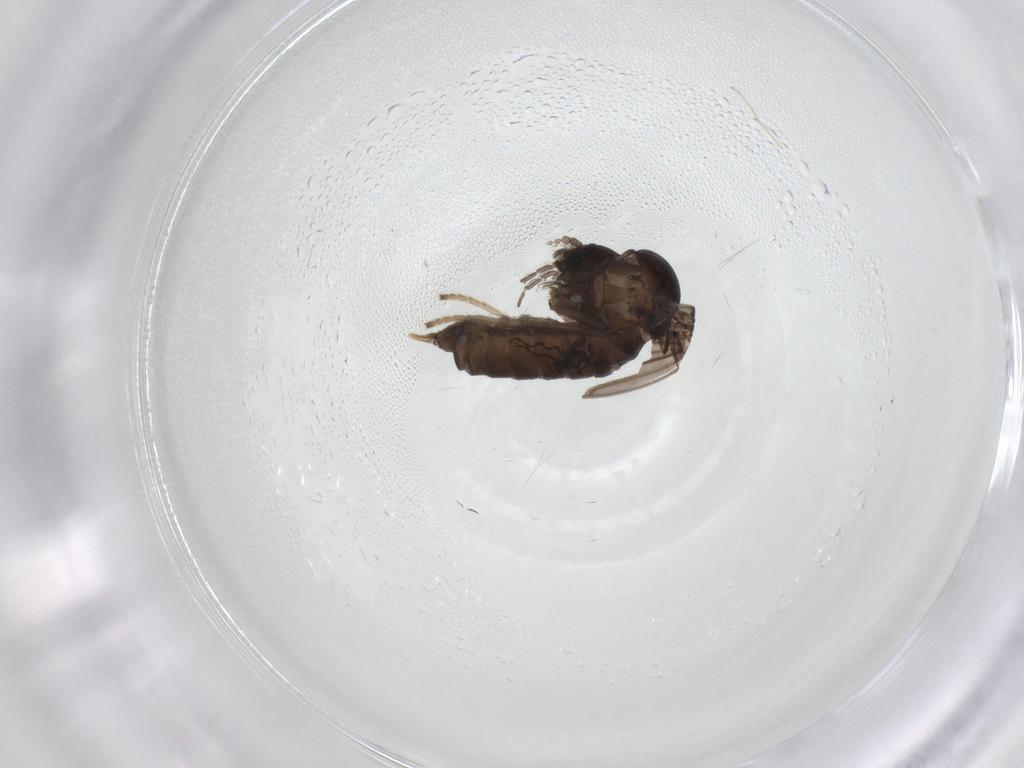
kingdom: Animalia
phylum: Arthropoda
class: Insecta
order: Diptera
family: Psychodidae
